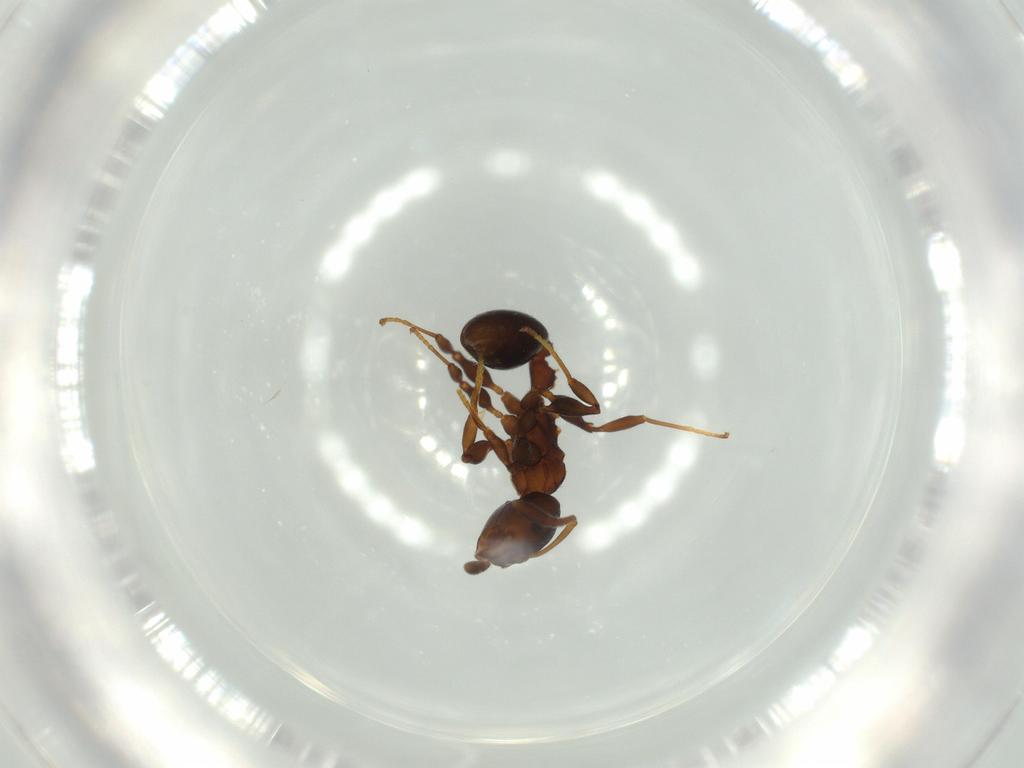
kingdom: Animalia
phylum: Arthropoda
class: Insecta
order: Hymenoptera
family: Formicidae
